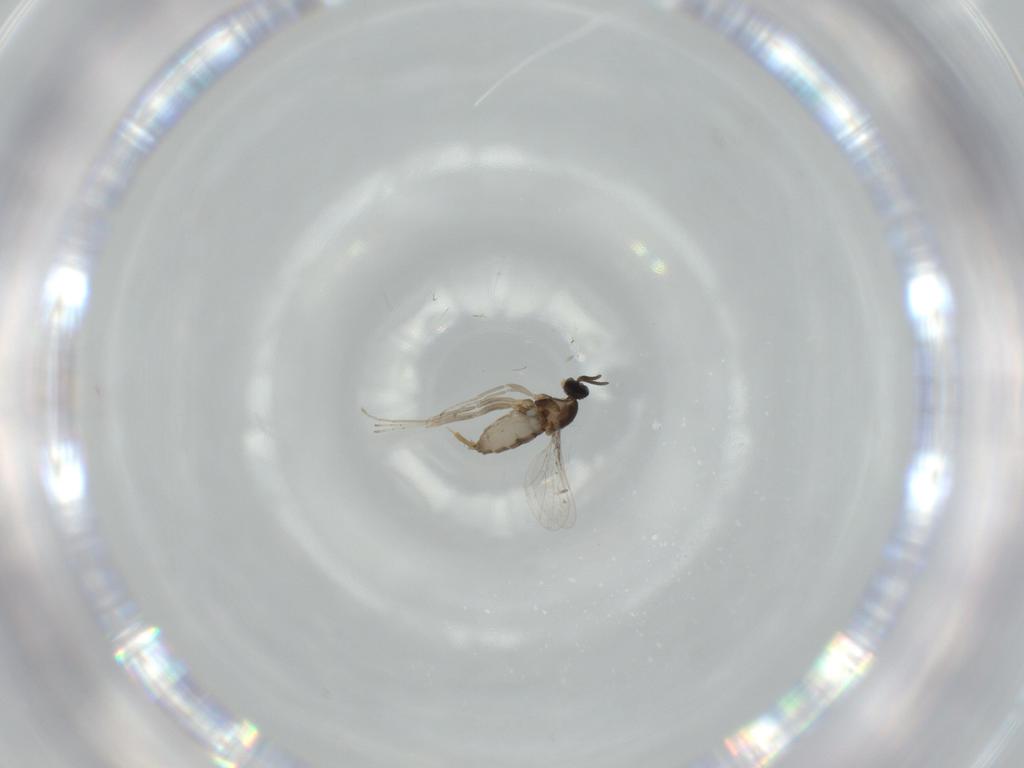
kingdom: Animalia
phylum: Arthropoda
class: Insecta
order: Diptera
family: Cecidomyiidae
